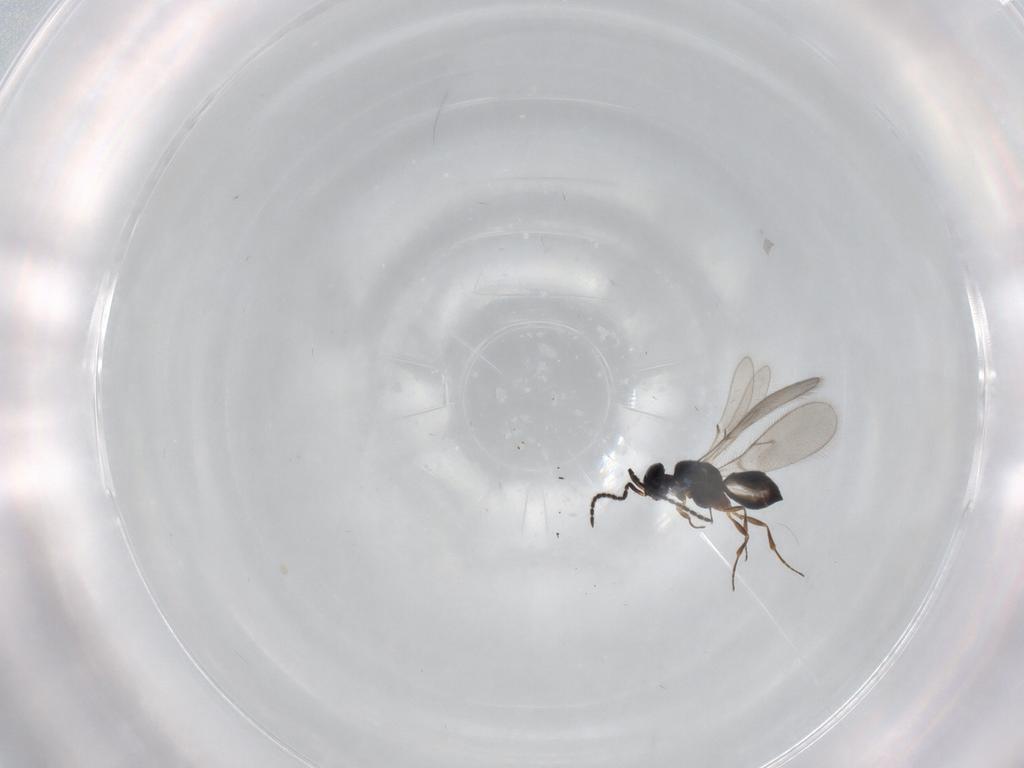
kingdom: Animalia
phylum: Arthropoda
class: Insecta
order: Hymenoptera
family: Scelionidae
